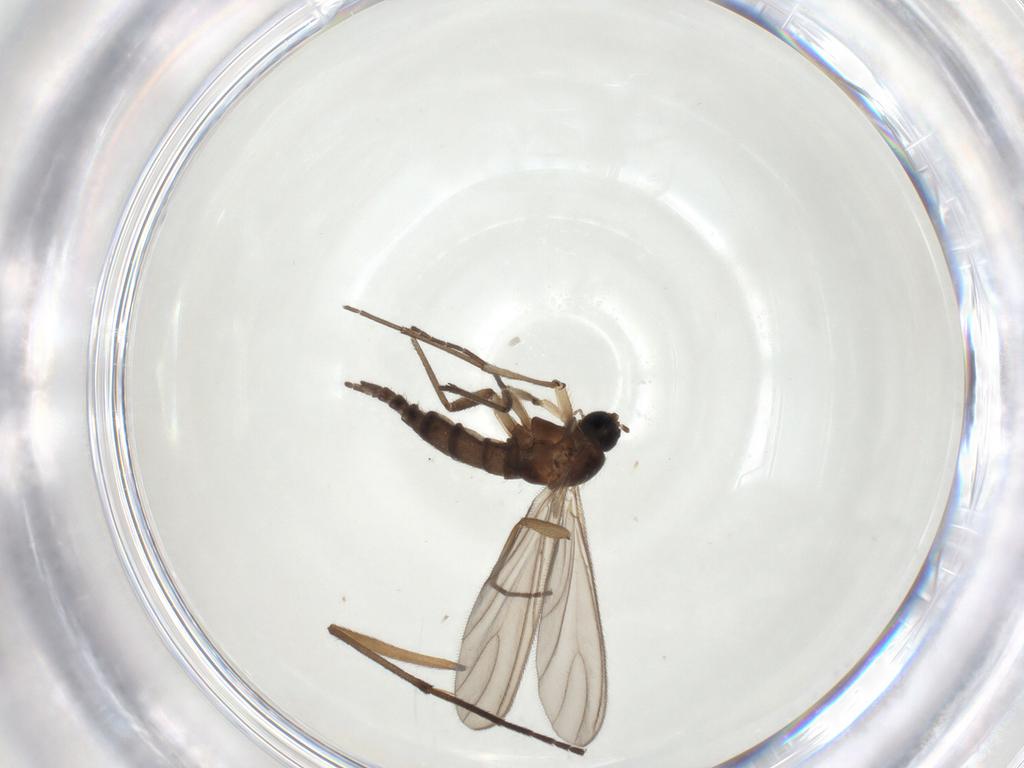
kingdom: Animalia
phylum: Arthropoda
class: Insecta
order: Diptera
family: Sciaridae
